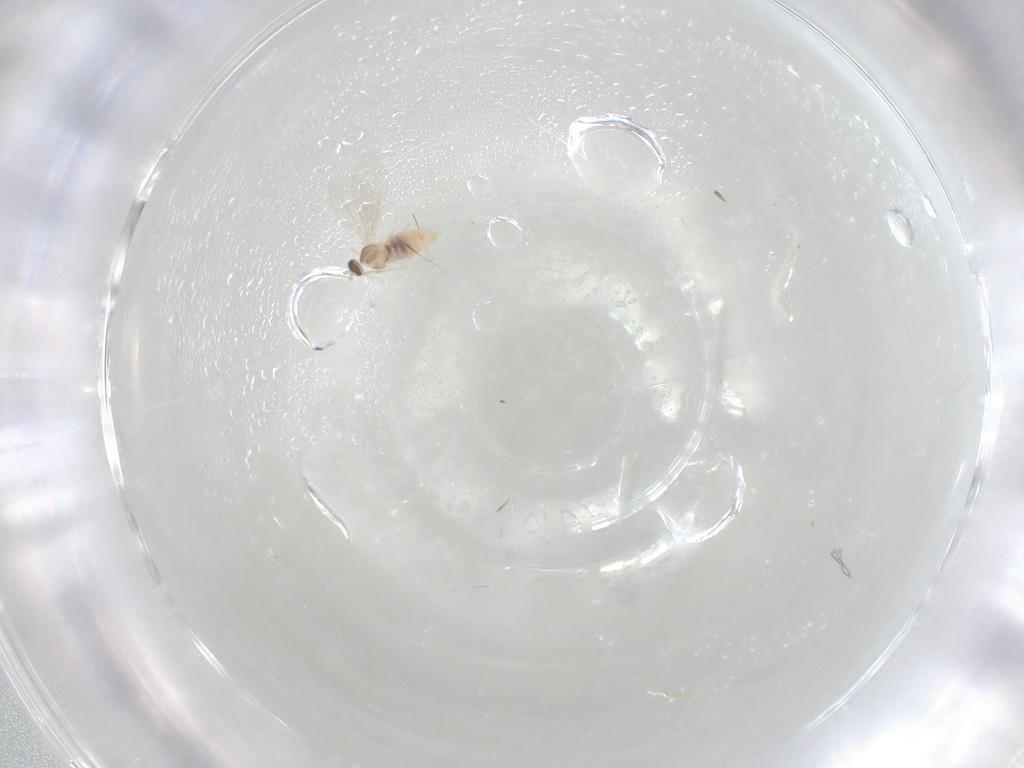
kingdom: Animalia
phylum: Arthropoda
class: Insecta
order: Diptera
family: Cecidomyiidae
